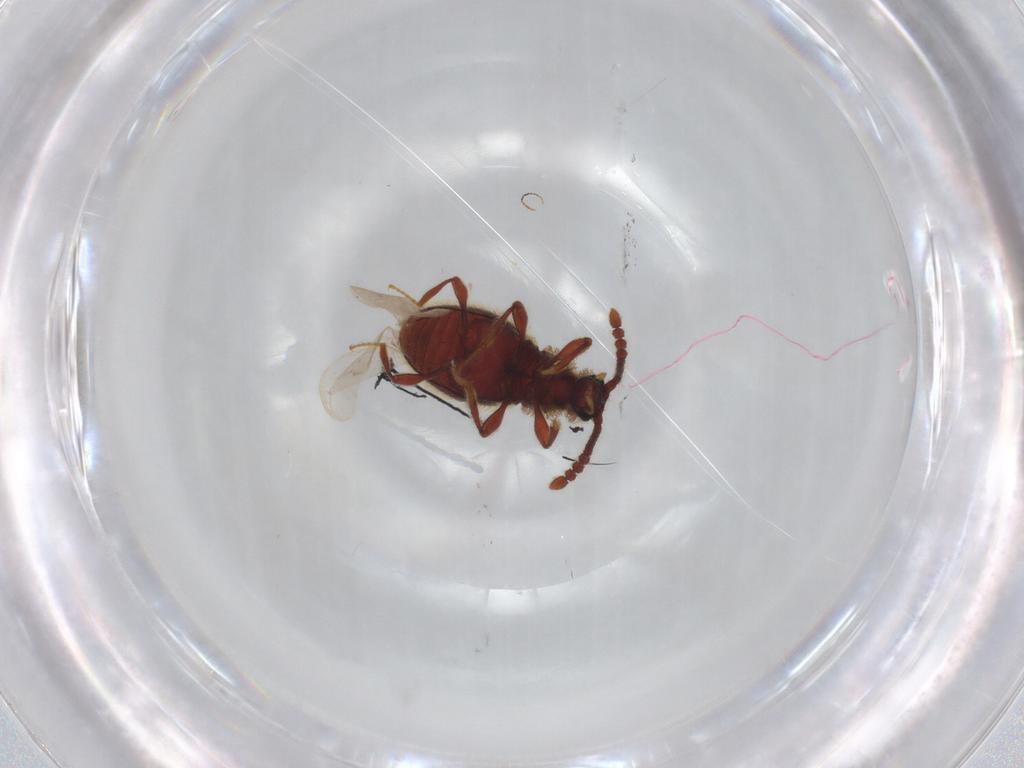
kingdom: Animalia
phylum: Arthropoda
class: Insecta
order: Coleoptera
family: Staphylinidae
